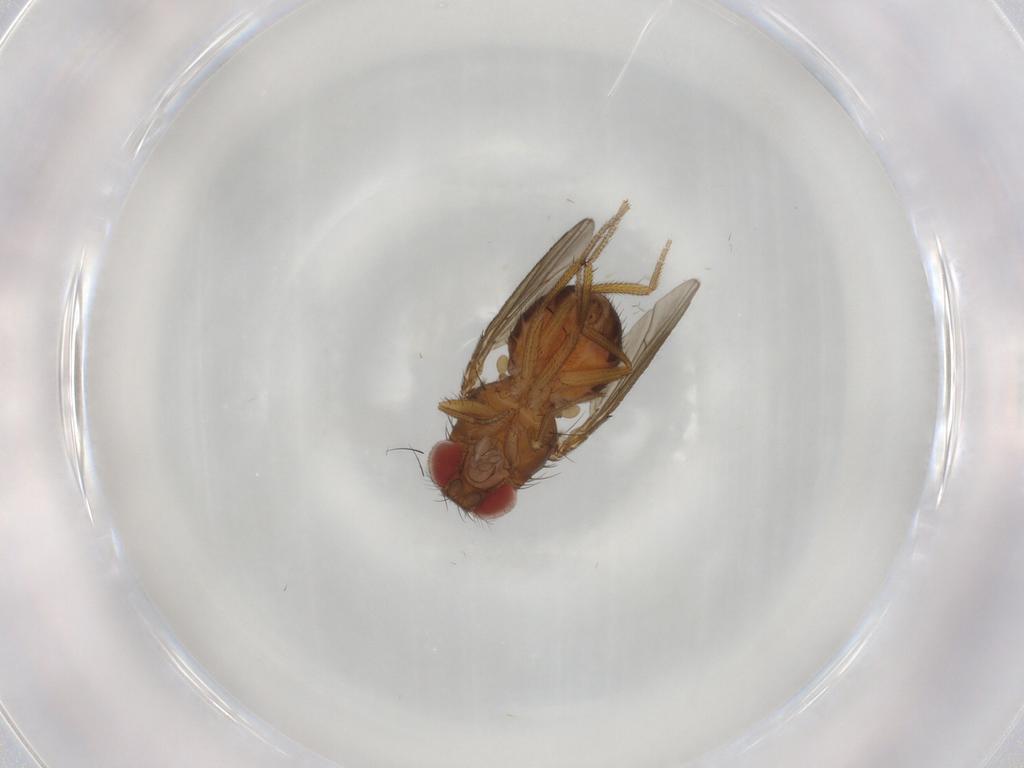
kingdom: Animalia
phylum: Arthropoda
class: Insecta
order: Diptera
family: Drosophilidae
